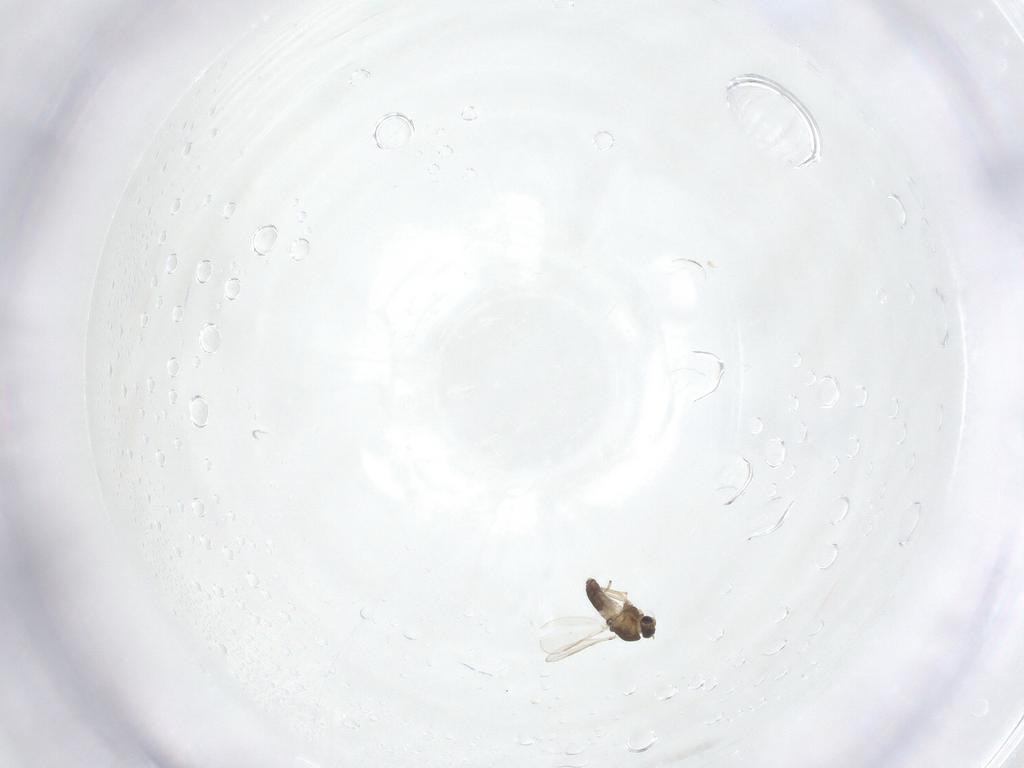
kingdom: Animalia
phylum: Arthropoda
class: Insecta
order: Diptera
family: Chironomidae
